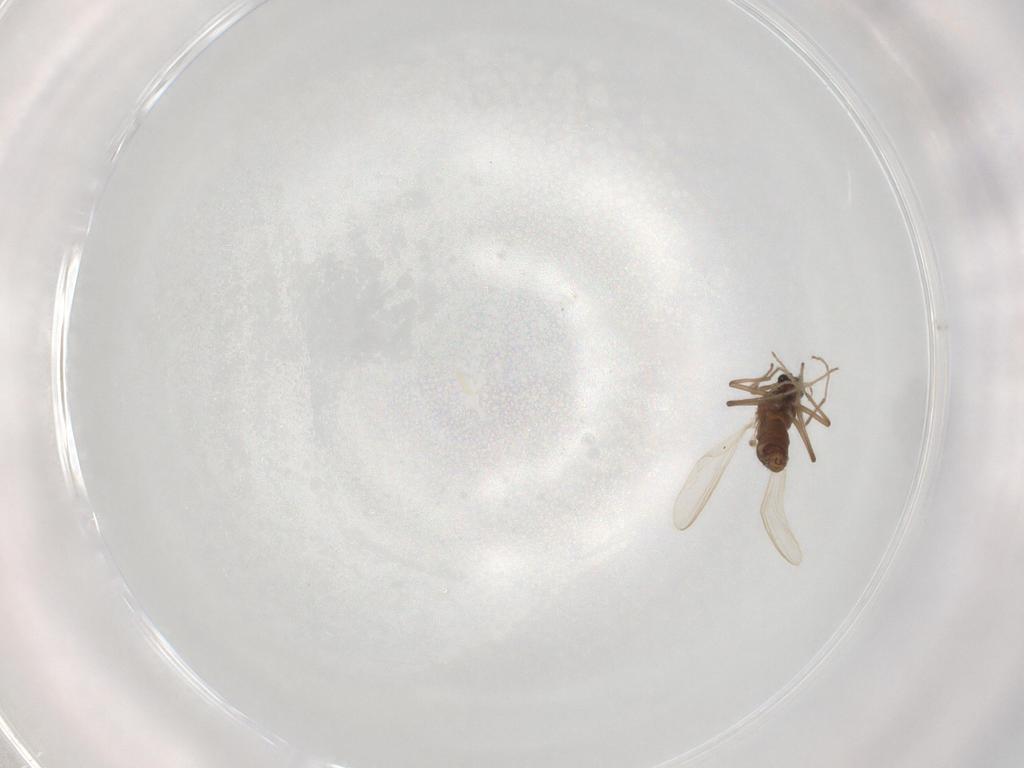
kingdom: Animalia
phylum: Arthropoda
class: Insecta
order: Diptera
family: Chironomidae
